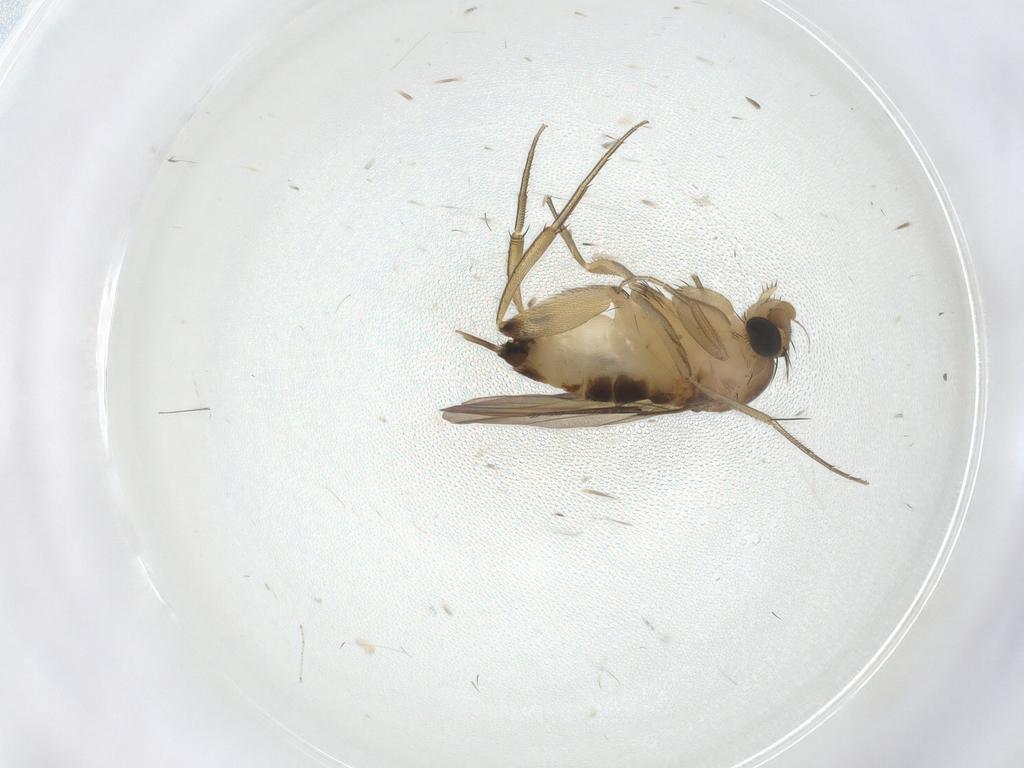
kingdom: Animalia
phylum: Arthropoda
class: Insecta
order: Diptera
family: Phoridae
